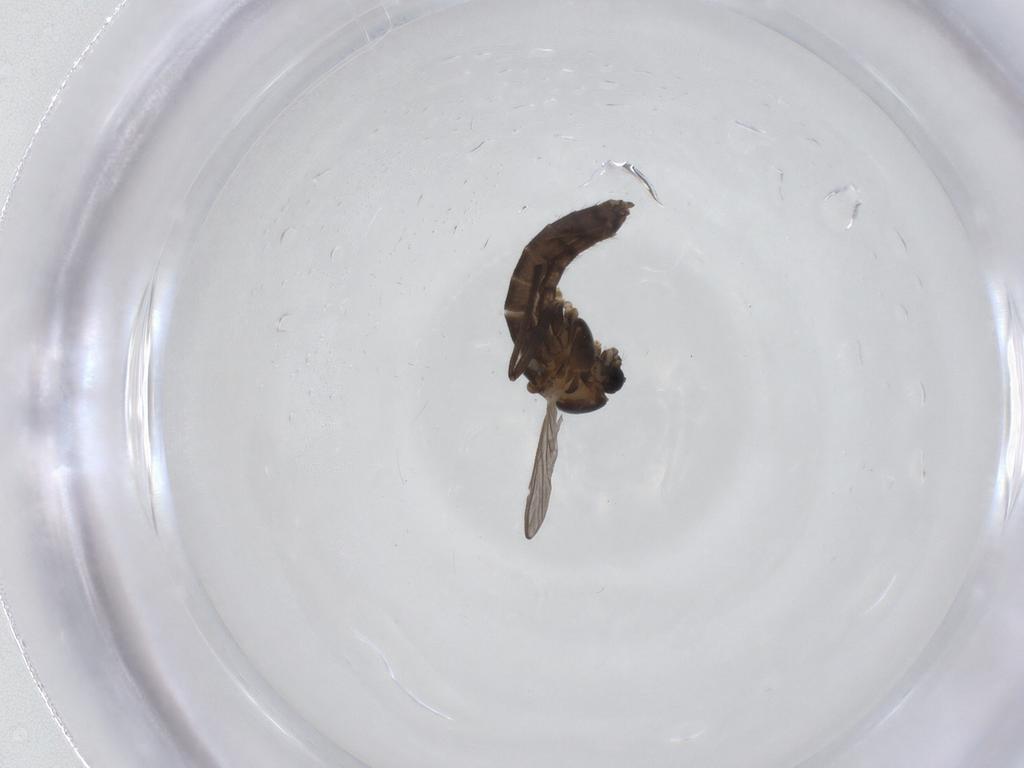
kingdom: Animalia
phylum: Arthropoda
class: Insecta
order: Diptera
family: Chironomidae
